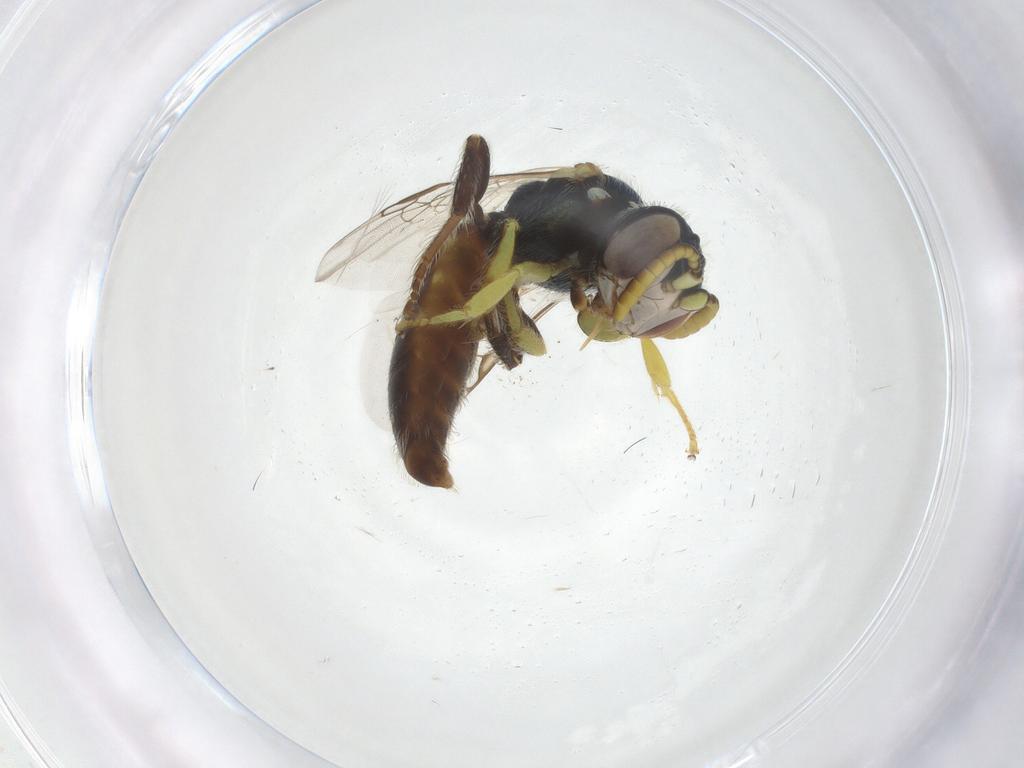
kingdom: Animalia
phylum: Arthropoda
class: Insecta
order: Hymenoptera
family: Andrenidae
